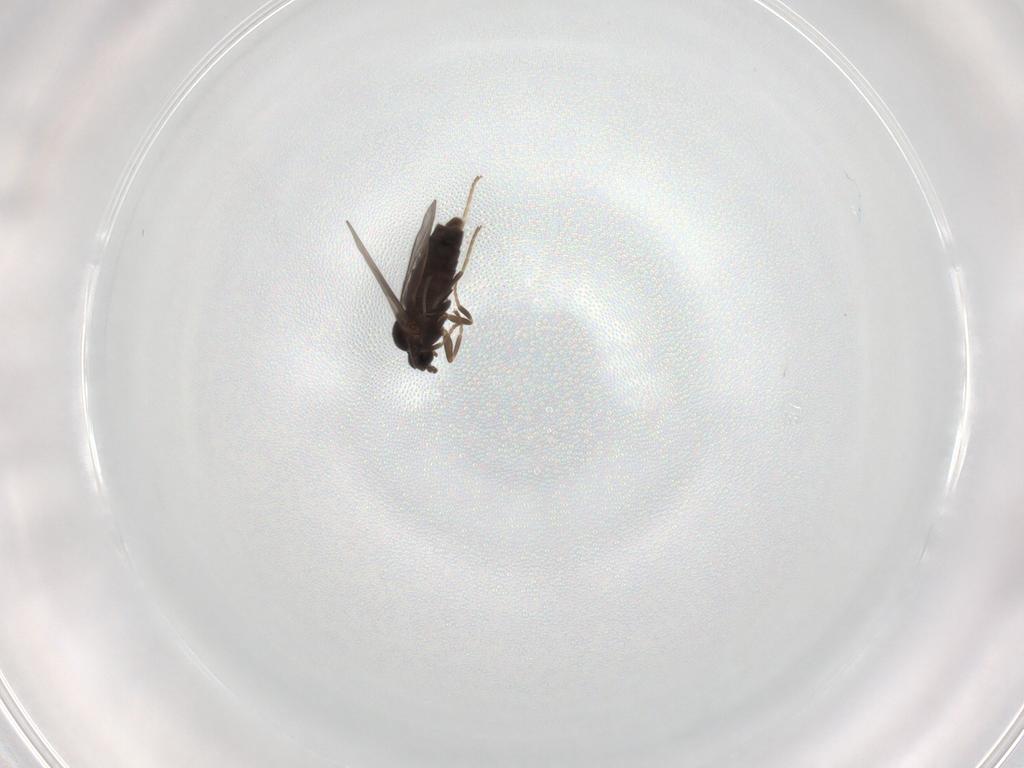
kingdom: Animalia
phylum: Arthropoda
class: Insecta
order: Diptera
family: Scatopsidae
